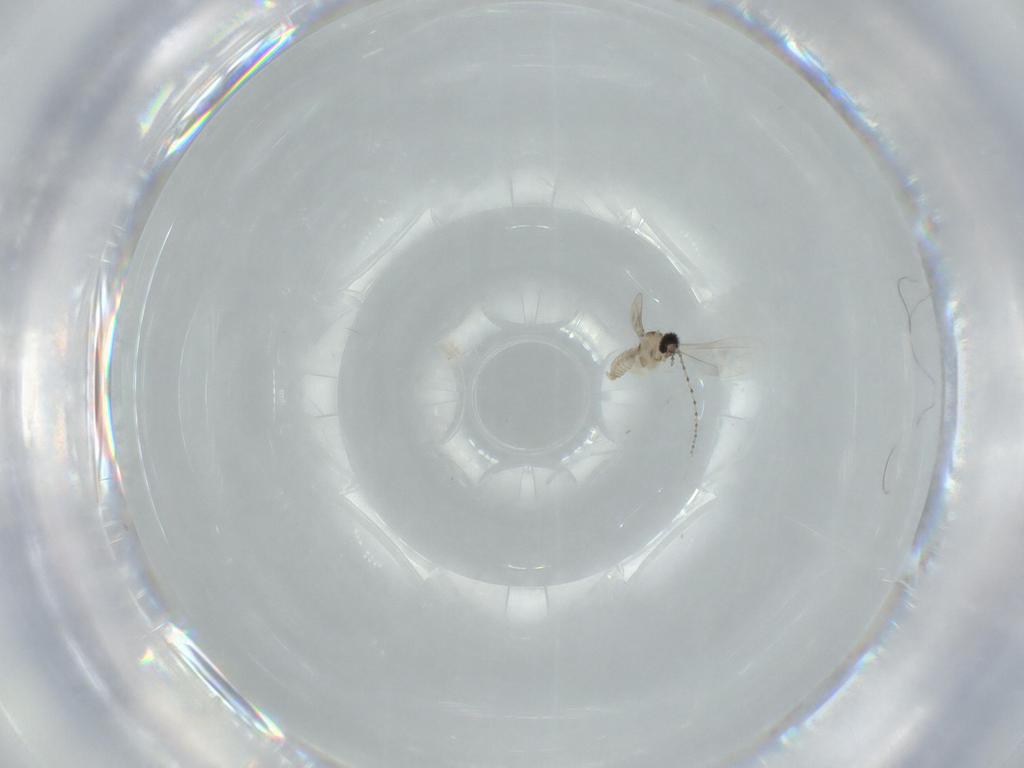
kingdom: Animalia
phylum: Arthropoda
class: Insecta
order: Diptera
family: Cecidomyiidae
